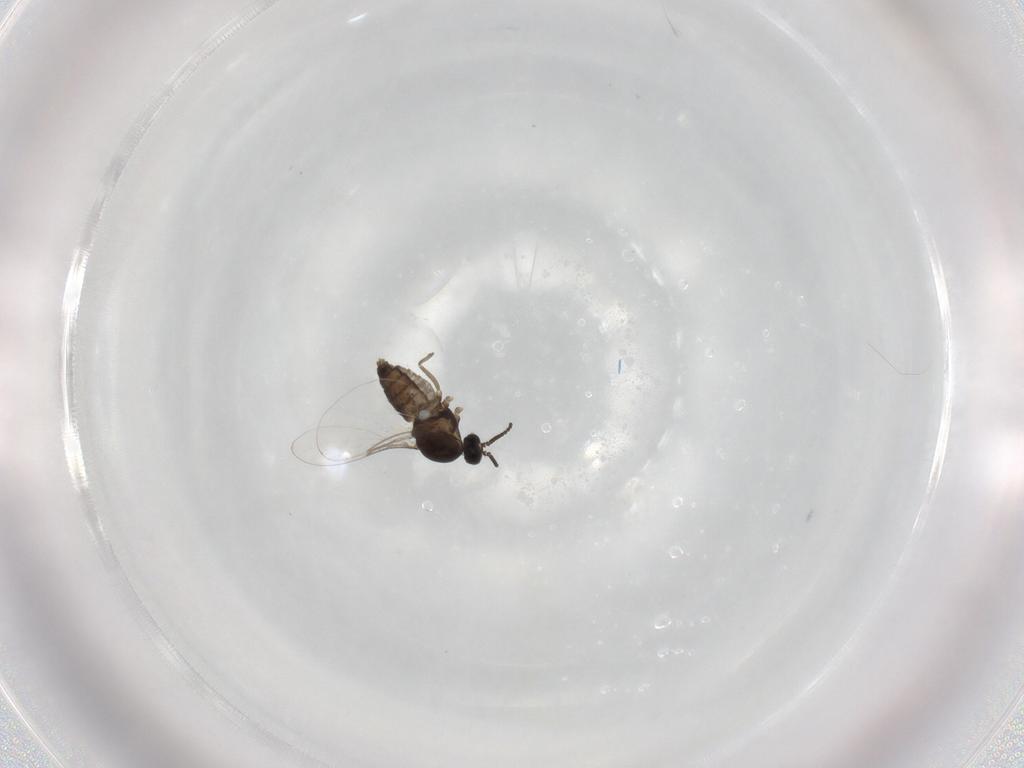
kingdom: Animalia
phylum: Arthropoda
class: Insecta
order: Diptera
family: Cecidomyiidae
